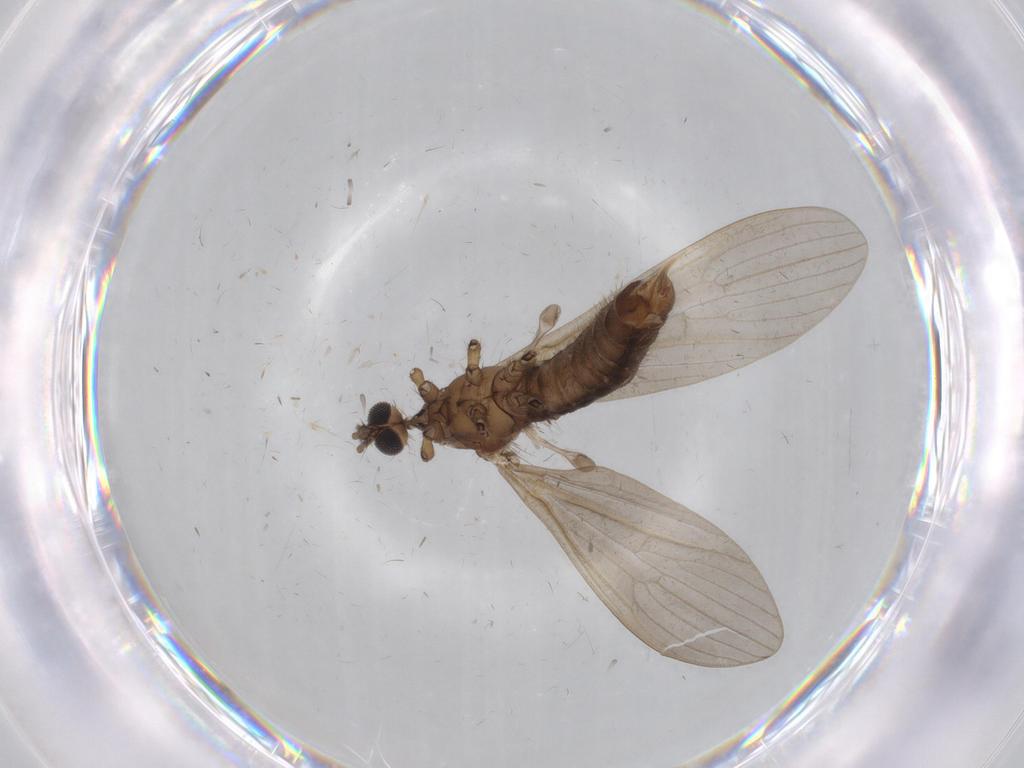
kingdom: Animalia
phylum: Arthropoda
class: Insecta
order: Diptera
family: Limoniidae
